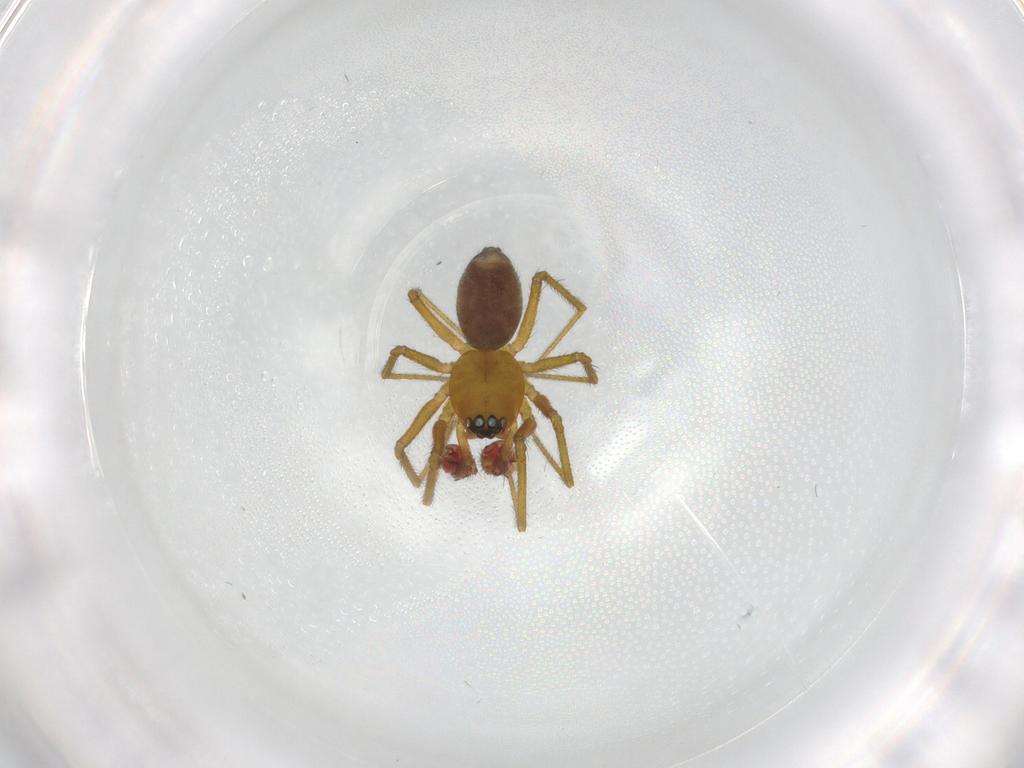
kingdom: Animalia
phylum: Arthropoda
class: Arachnida
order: Araneae
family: Linyphiidae
